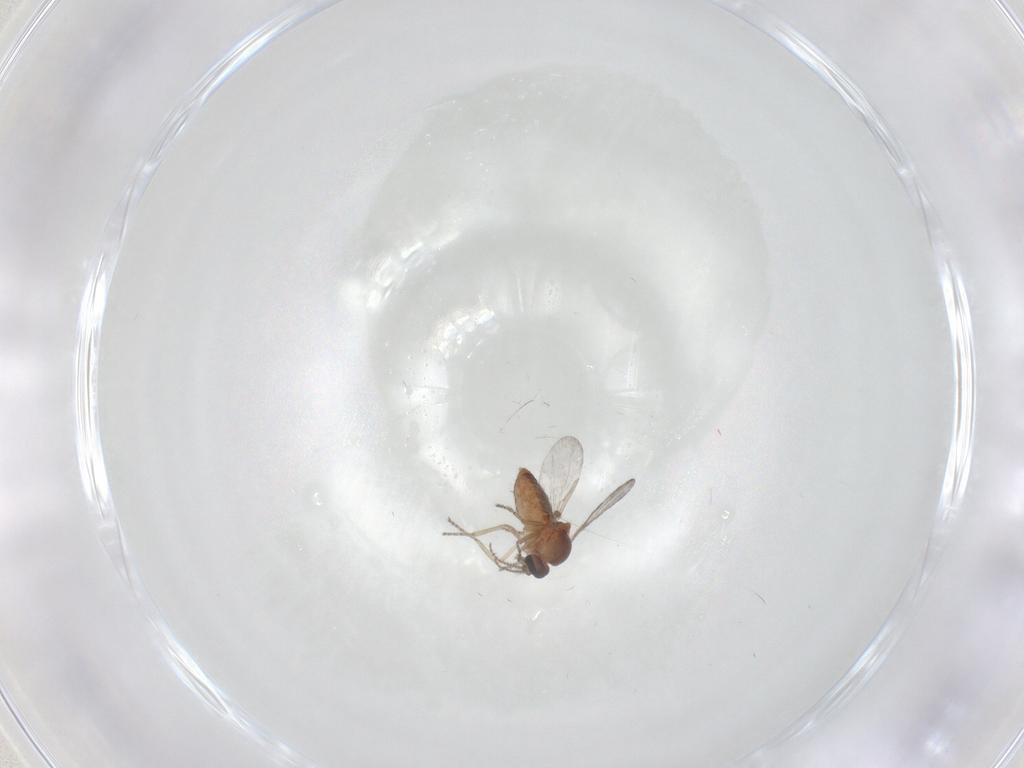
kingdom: Animalia
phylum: Arthropoda
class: Insecta
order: Diptera
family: Ceratopogonidae
